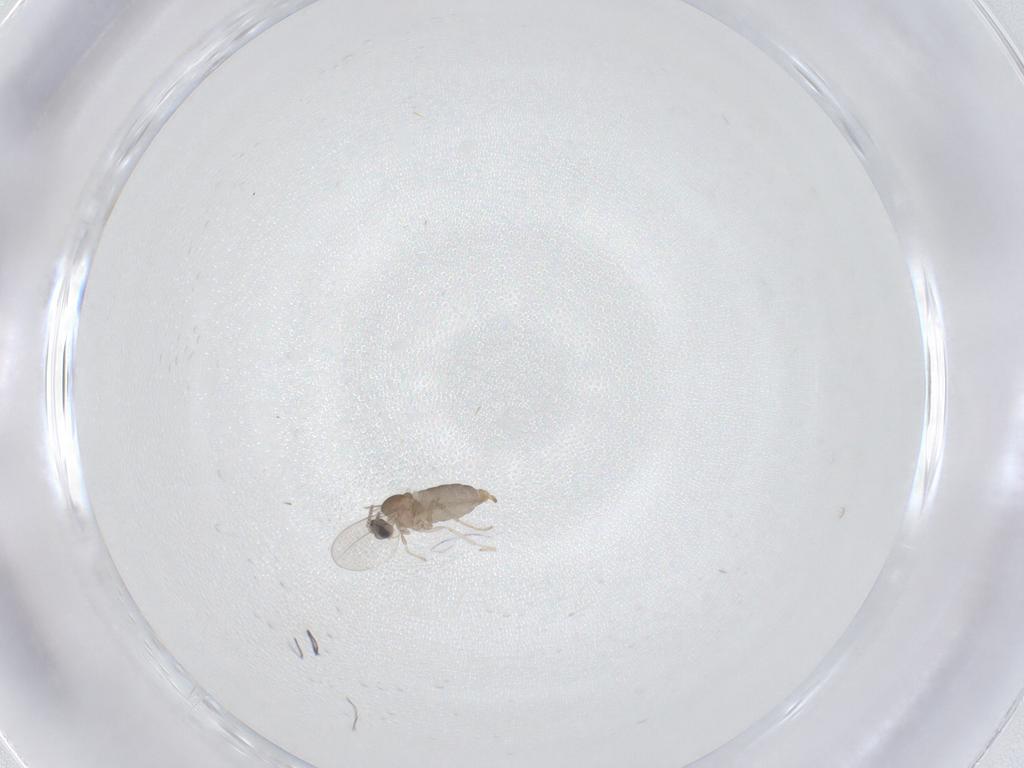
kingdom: Animalia
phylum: Arthropoda
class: Insecta
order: Diptera
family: Cecidomyiidae
